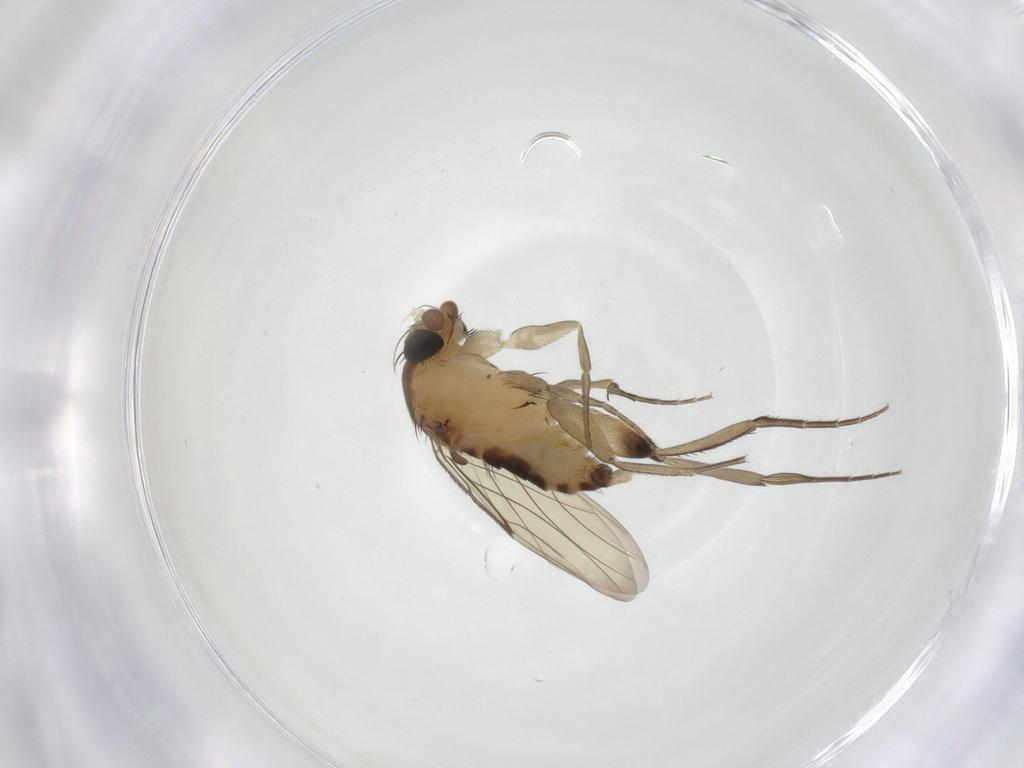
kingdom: Animalia
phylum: Arthropoda
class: Insecta
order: Diptera
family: Phoridae
